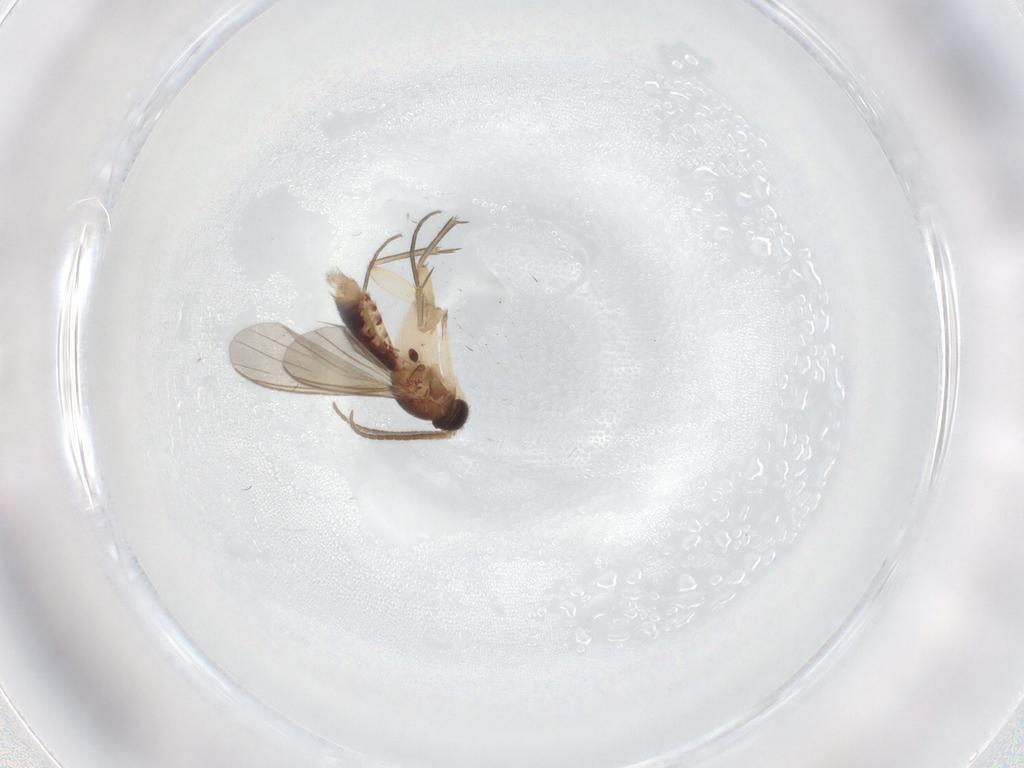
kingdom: Animalia
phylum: Arthropoda
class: Insecta
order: Diptera
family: Mycetophilidae
